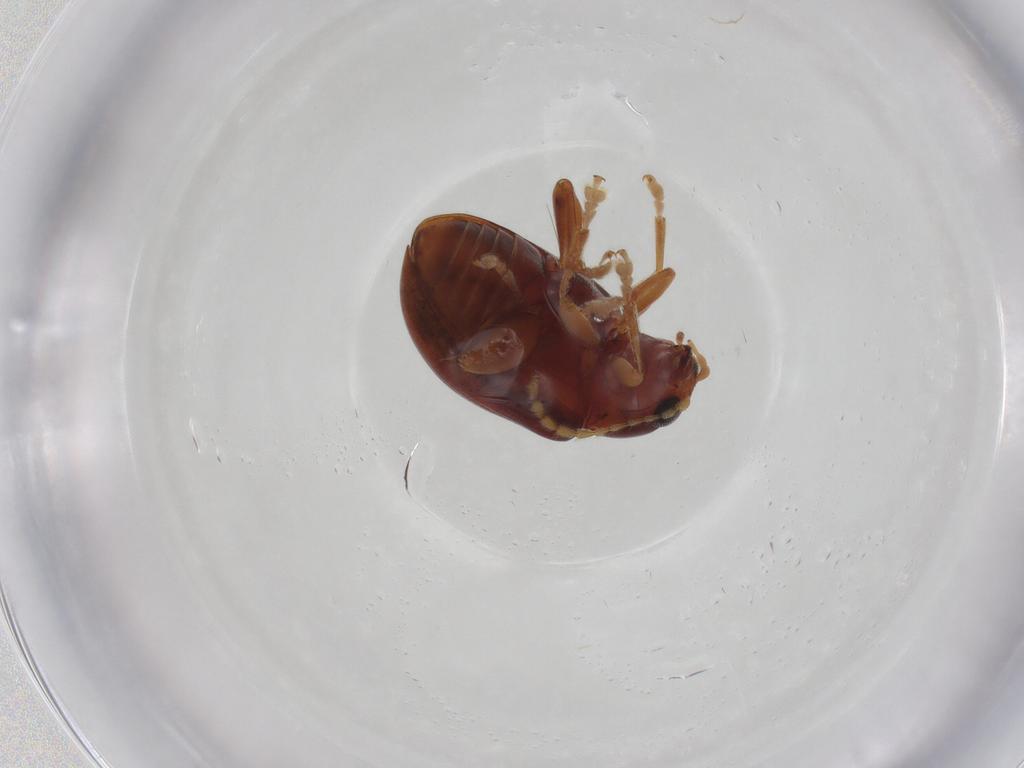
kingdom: Animalia
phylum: Arthropoda
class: Insecta
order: Coleoptera
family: Chrysomelidae
